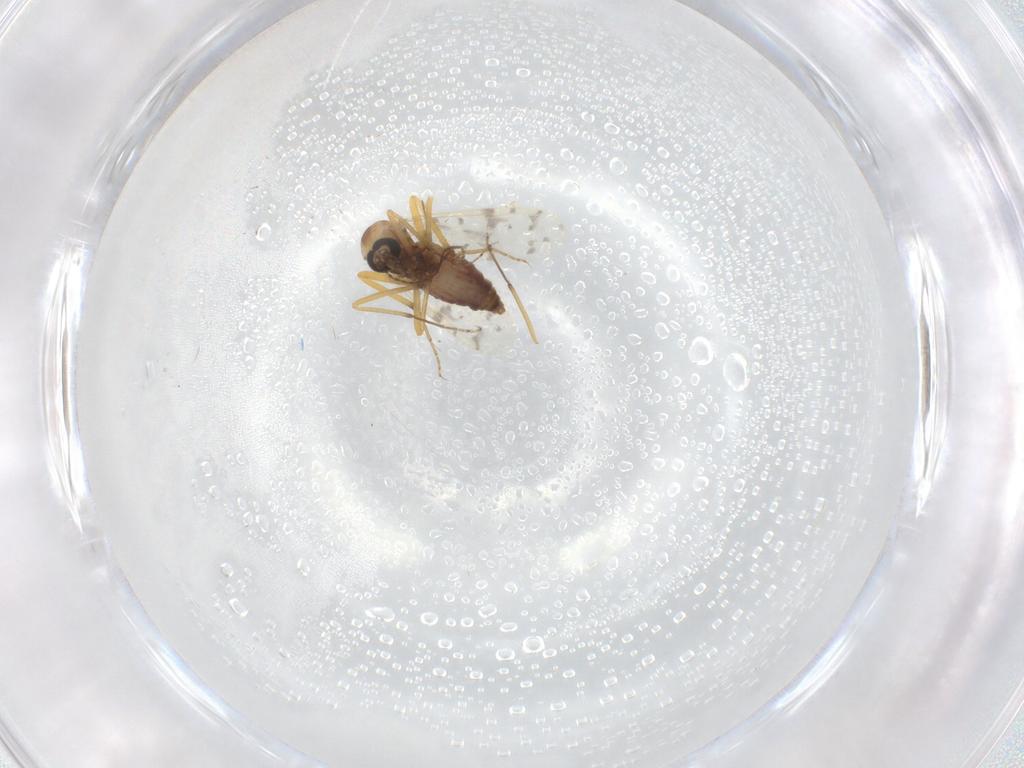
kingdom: Animalia
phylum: Arthropoda
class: Insecta
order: Diptera
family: Ceratopogonidae
